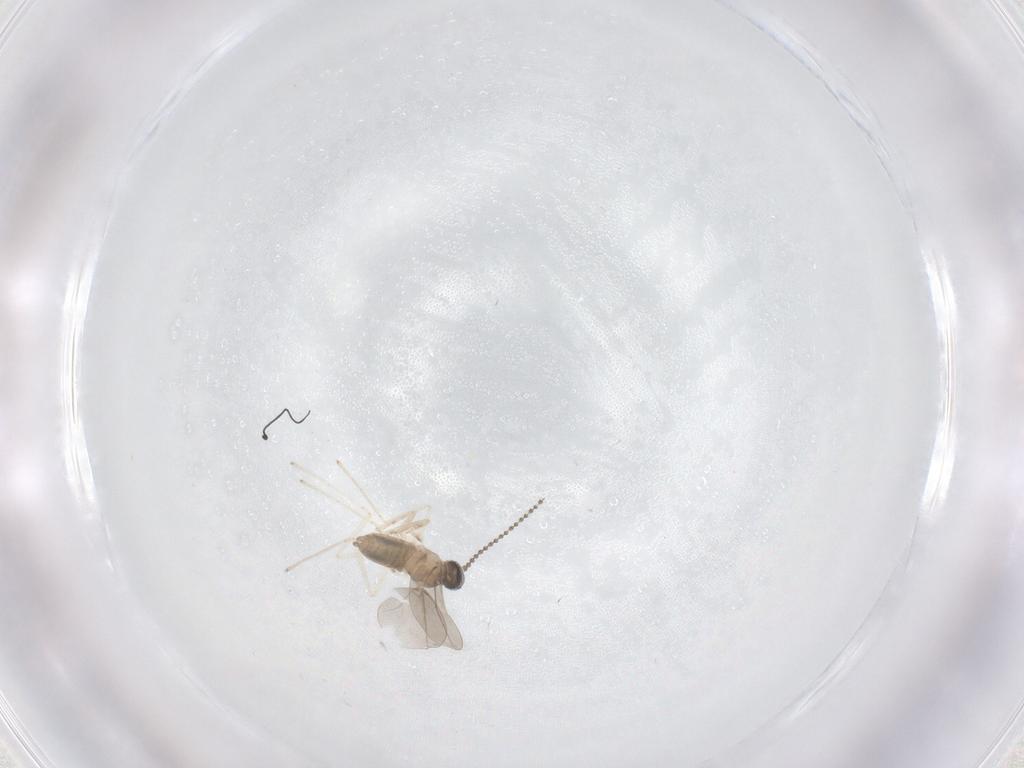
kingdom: Animalia
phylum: Arthropoda
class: Insecta
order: Diptera
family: Cecidomyiidae
